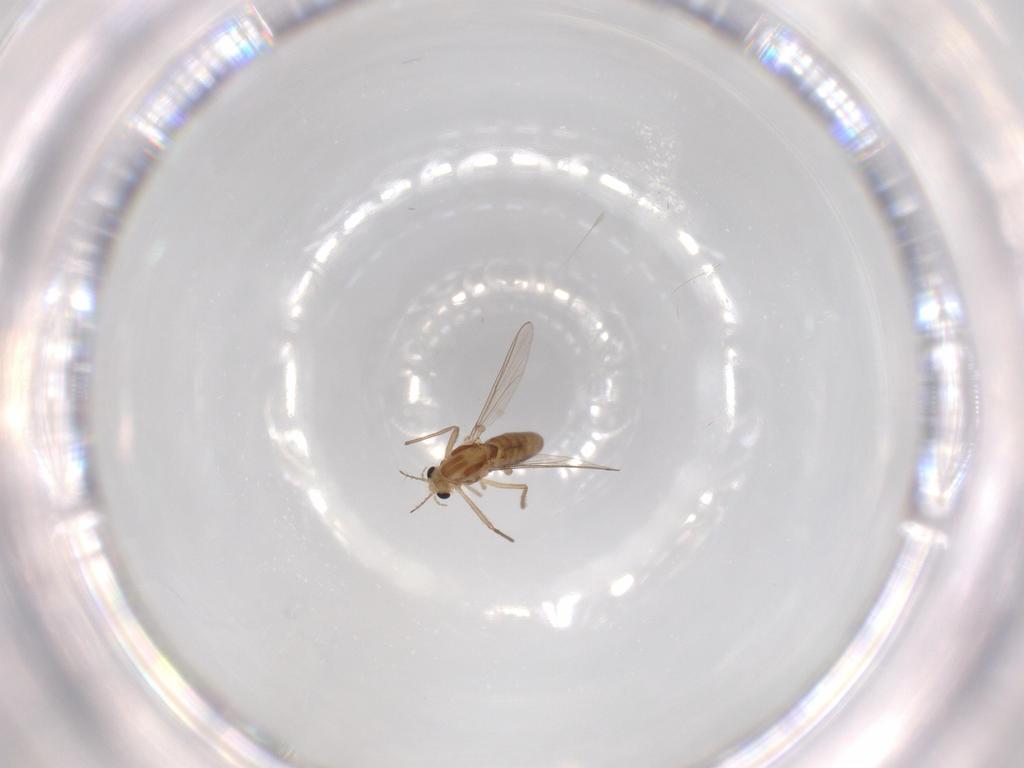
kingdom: Animalia
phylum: Arthropoda
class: Insecta
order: Diptera
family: Chironomidae
